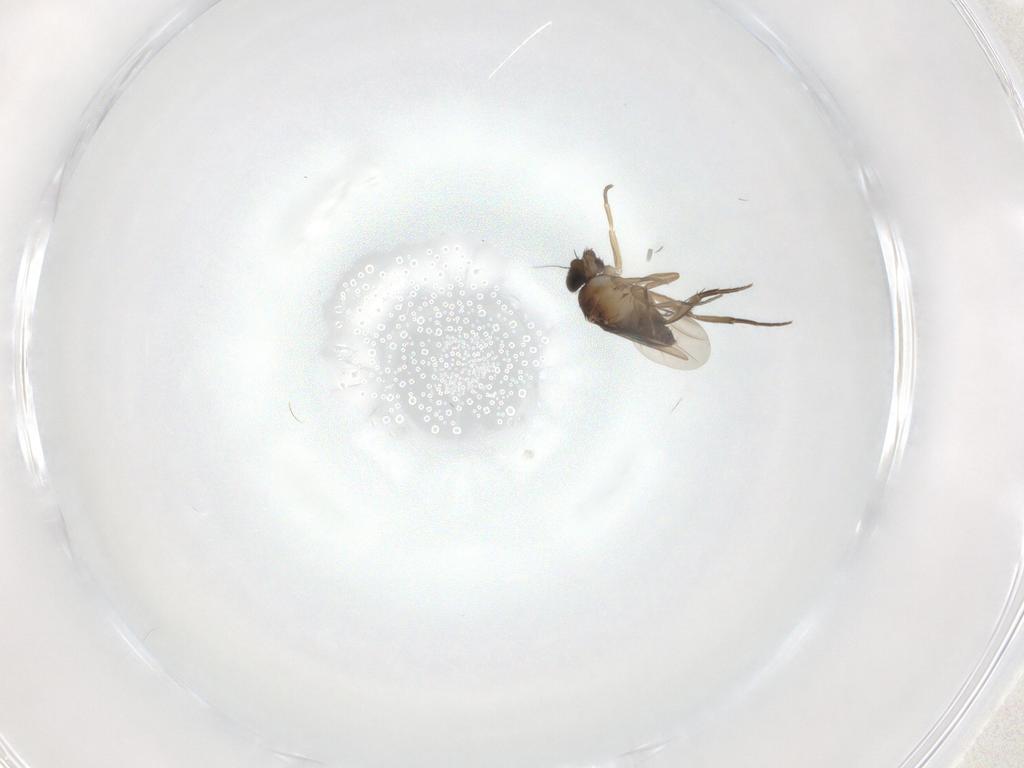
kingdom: Animalia
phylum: Arthropoda
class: Insecta
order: Diptera
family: Phoridae
